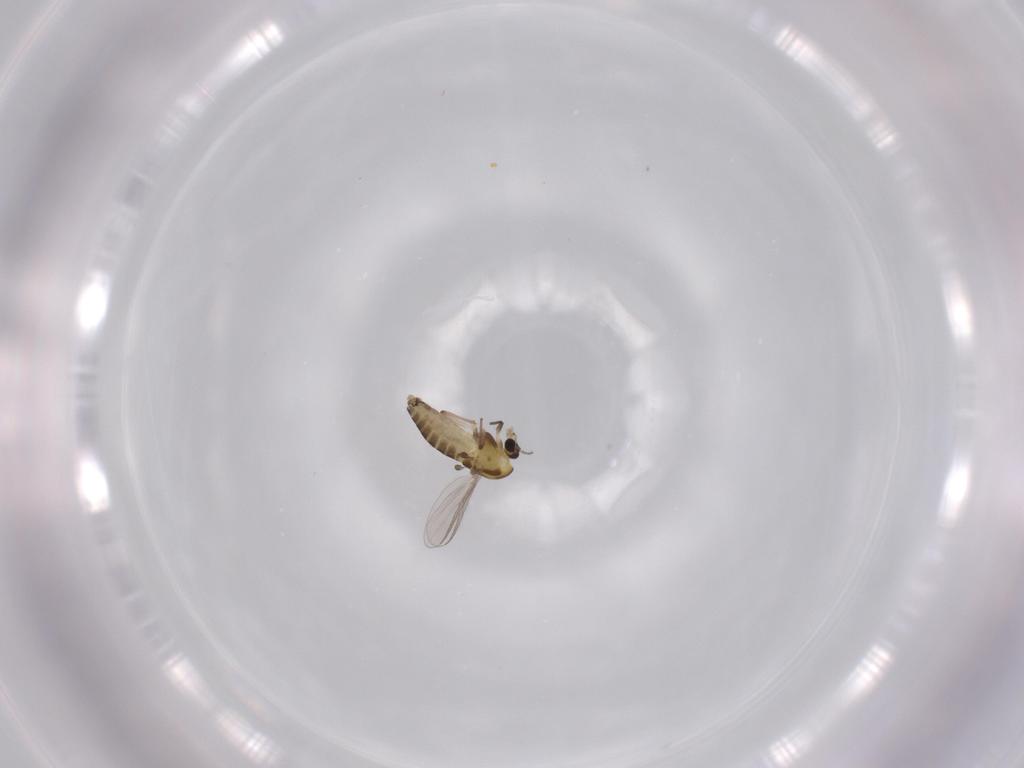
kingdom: Animalia
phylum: Arthropoda
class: Insecta
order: Diptera
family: Chironomidae
